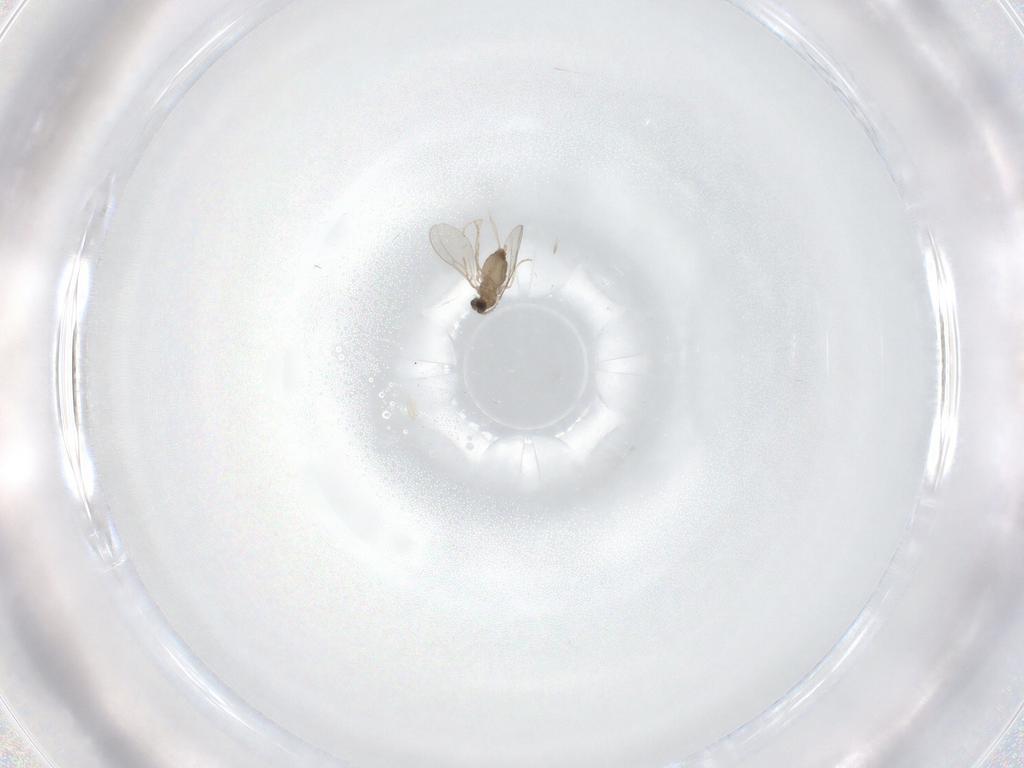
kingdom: Animalia
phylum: Arthropoda
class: Insecta
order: Diptera
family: Cecidomyiidae
